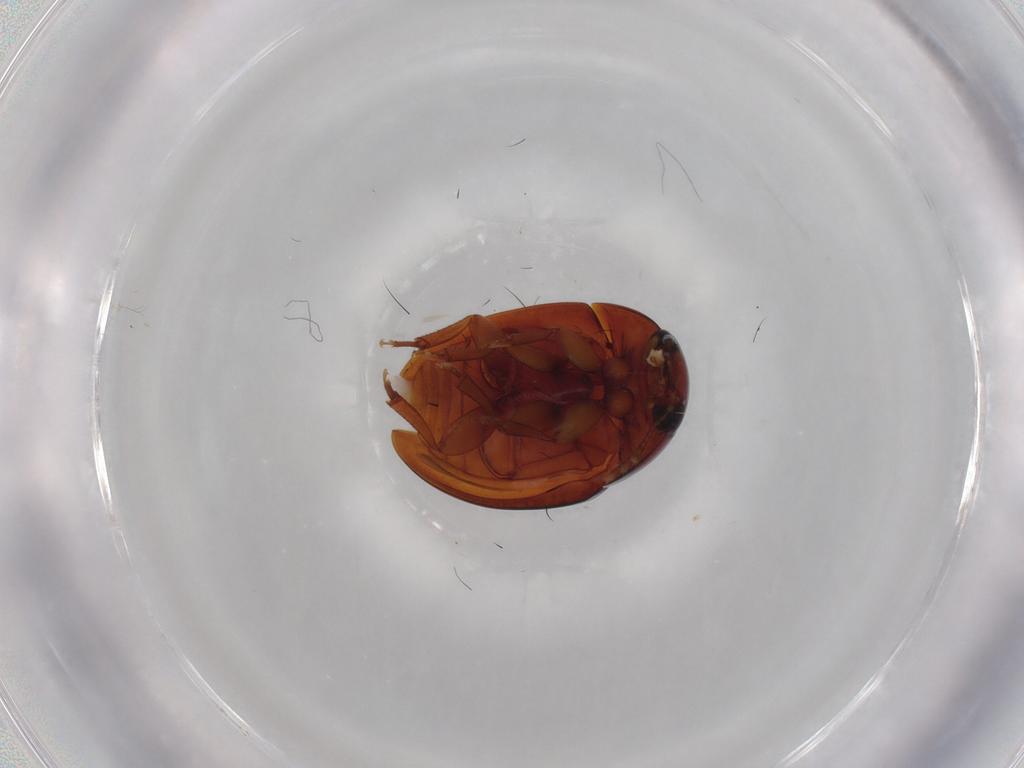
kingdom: Animalia
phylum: Arthropoda
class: Insecta
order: Coleoptera
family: Phalacridae
